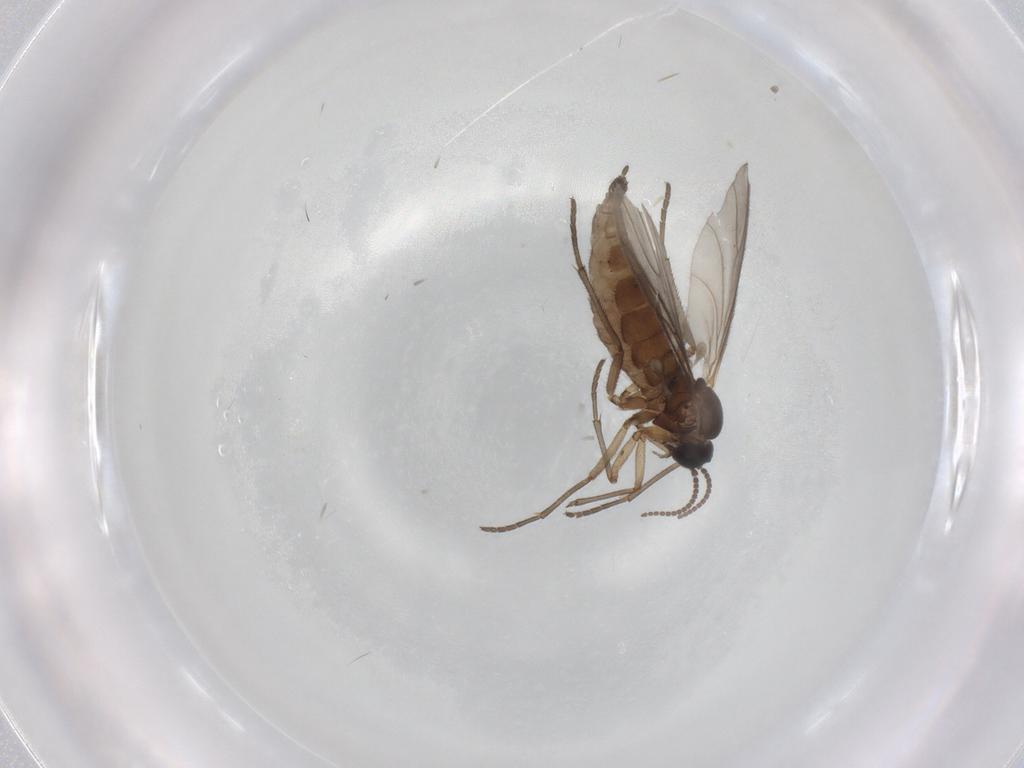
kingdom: Animalia
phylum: Arthropoda
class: Insecta
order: Diptera
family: Sciaridae
